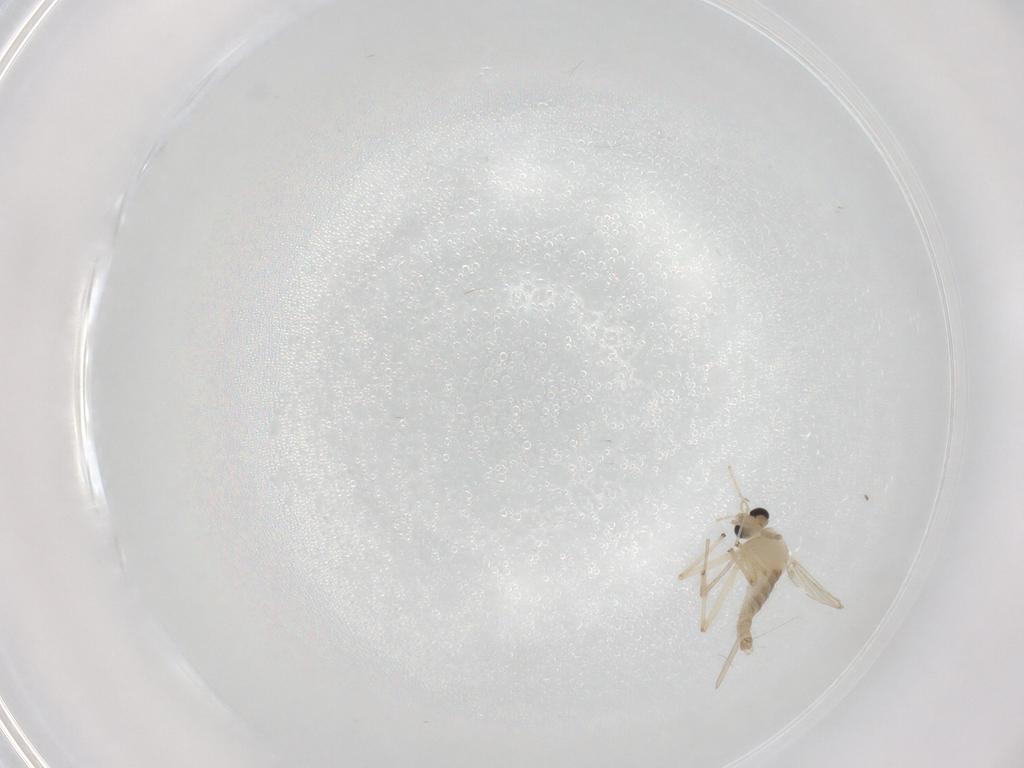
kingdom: Animalia
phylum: Arthropoda
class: Insecta
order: Diptera
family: Chironomidae
